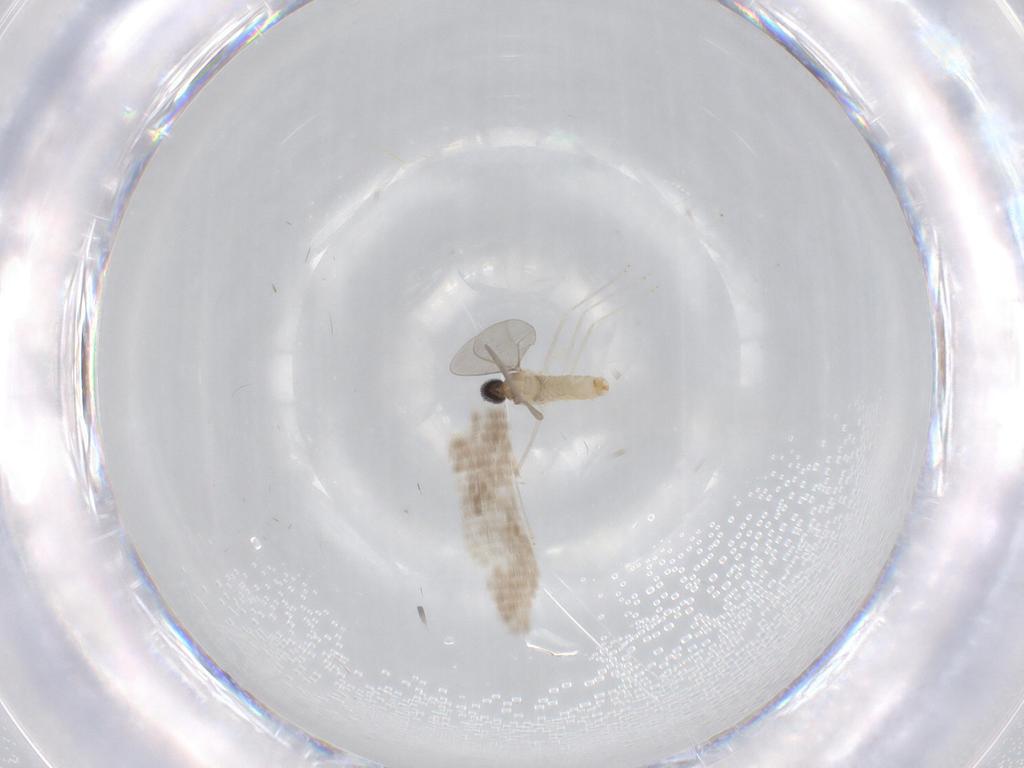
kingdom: Animalia
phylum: Arthropoda
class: Insecta
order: Diptera
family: Cecidomyiidae
